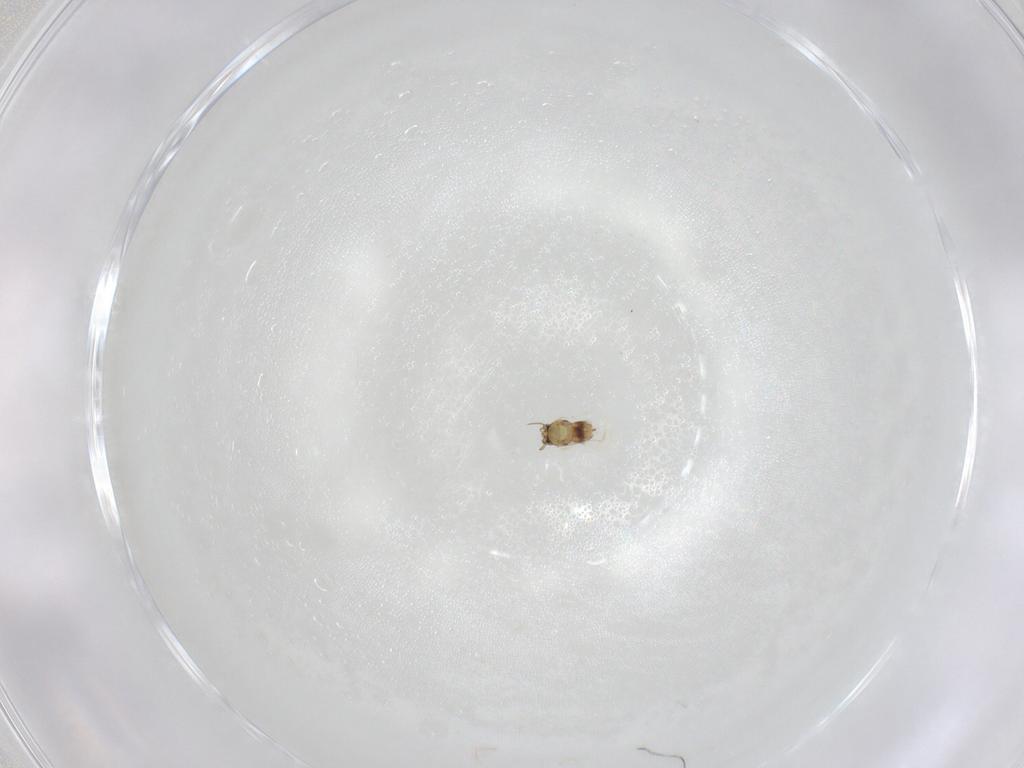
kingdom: Animalia
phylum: Arthropoda
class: Insecta
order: Hymenoptera
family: Aphelinidae
